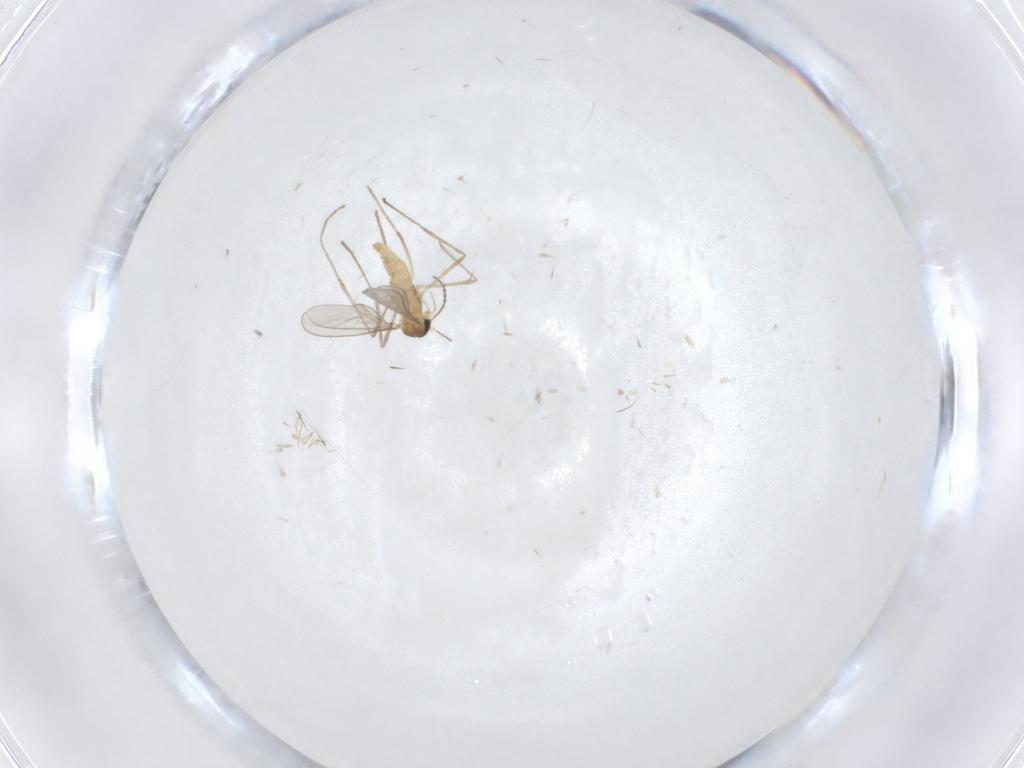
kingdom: Animalia
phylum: Arthropoda
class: Insecta
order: Diptera
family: Cecidomyiidae
